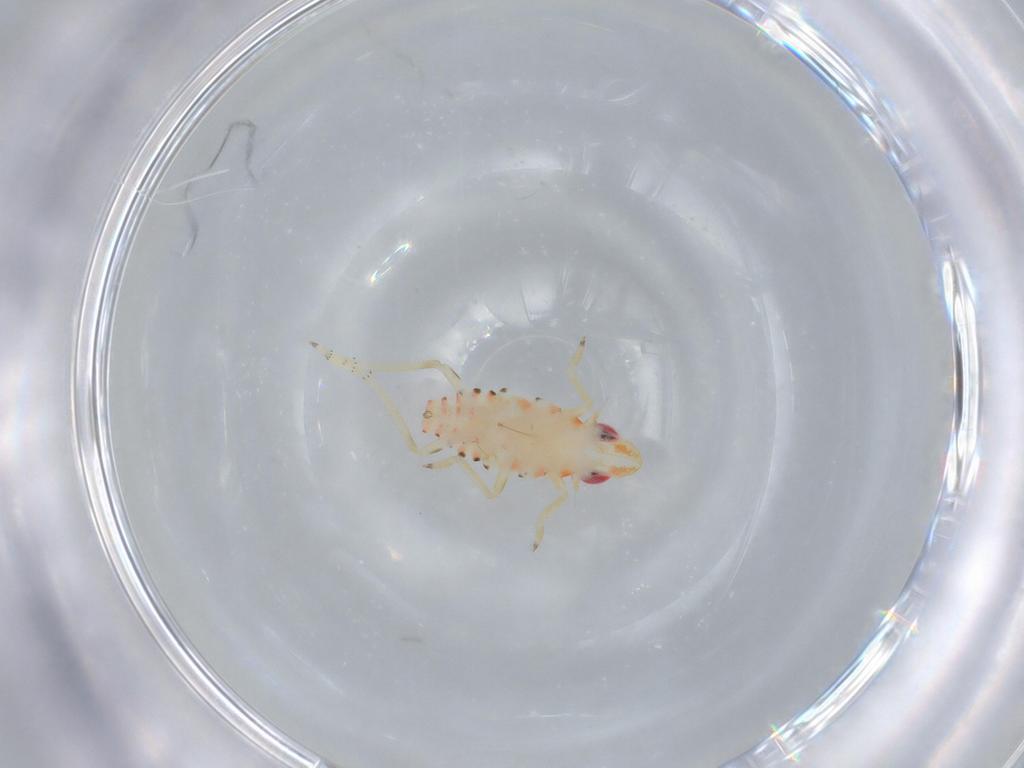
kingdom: Animalia
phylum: Arthropoda
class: Insecta
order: Hemiptera
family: Tropiduchidae
